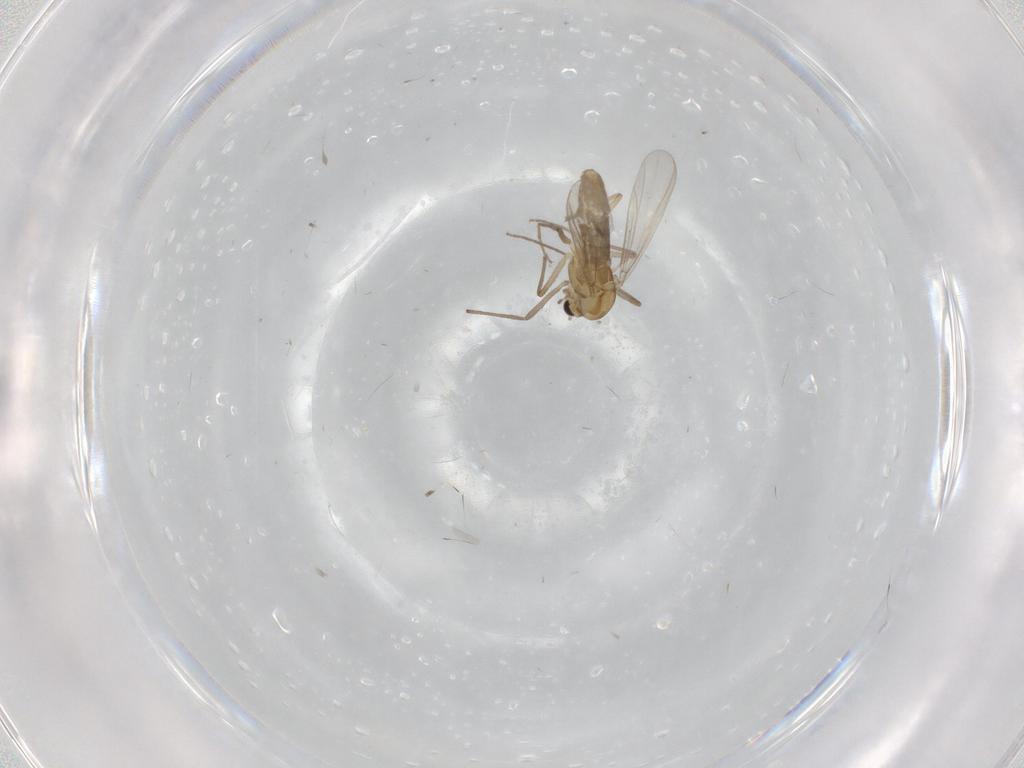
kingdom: Animalia
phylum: Arthropoda
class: Insecta
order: Diptera
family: Chironomidae
